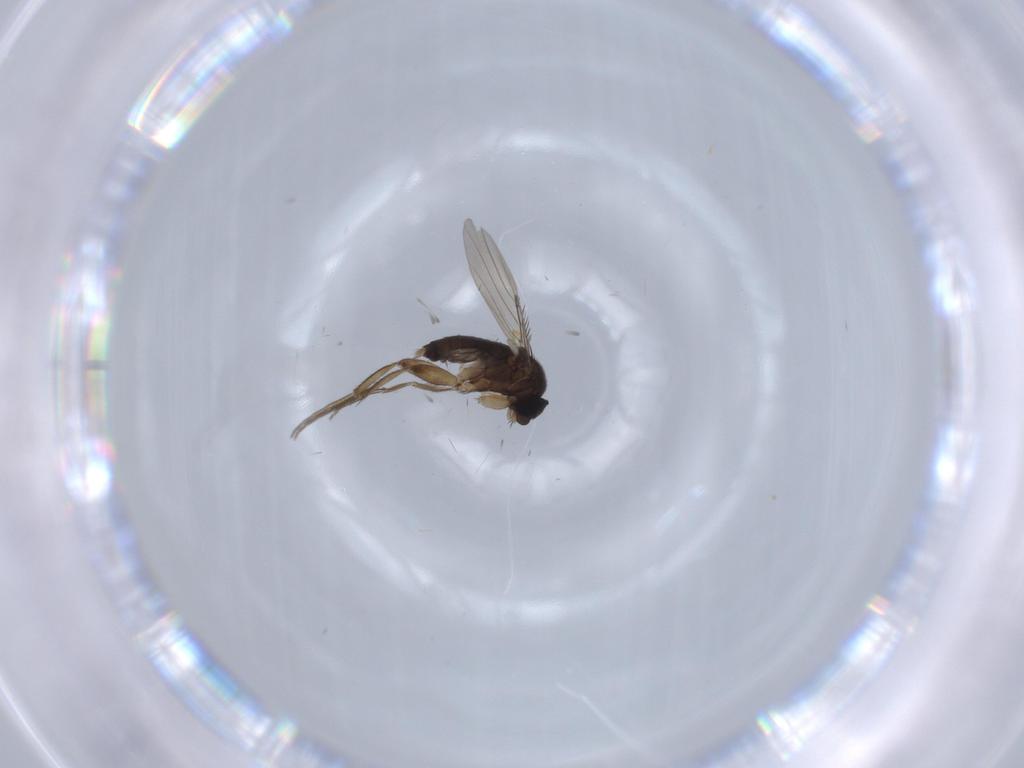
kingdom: Animalia
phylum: Arthropoda
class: Insecta
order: Diptera
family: Phoridae
